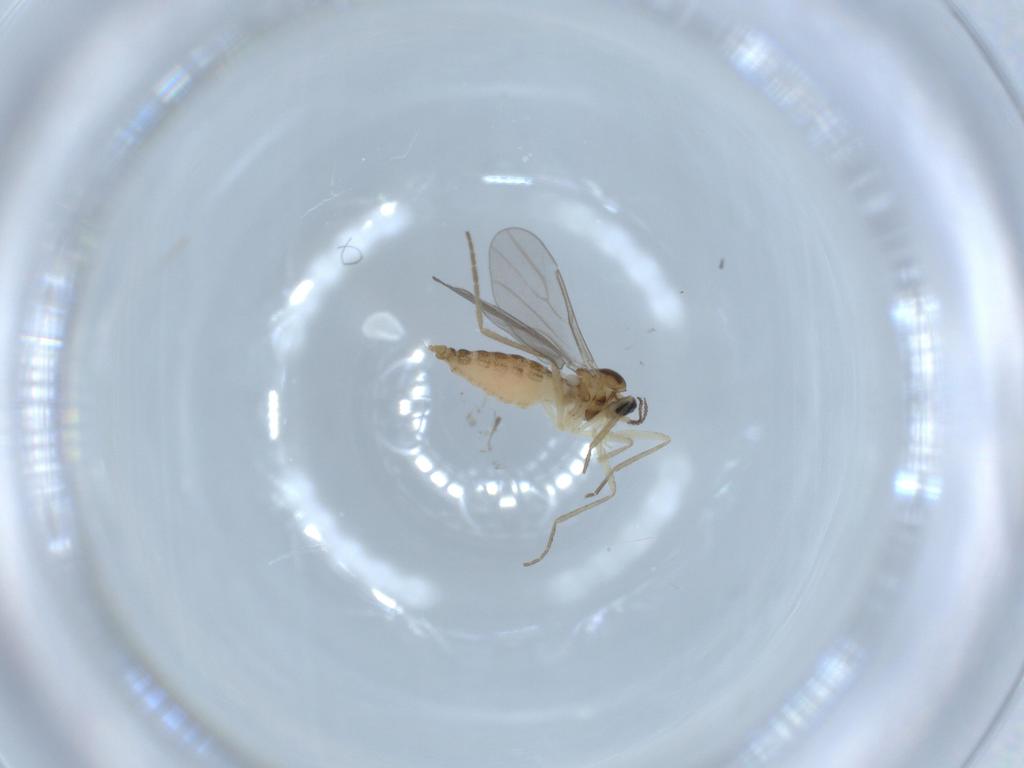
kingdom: Animalia
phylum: Arthropoda
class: Insecta
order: Diptera
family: Cecidomyiidae
